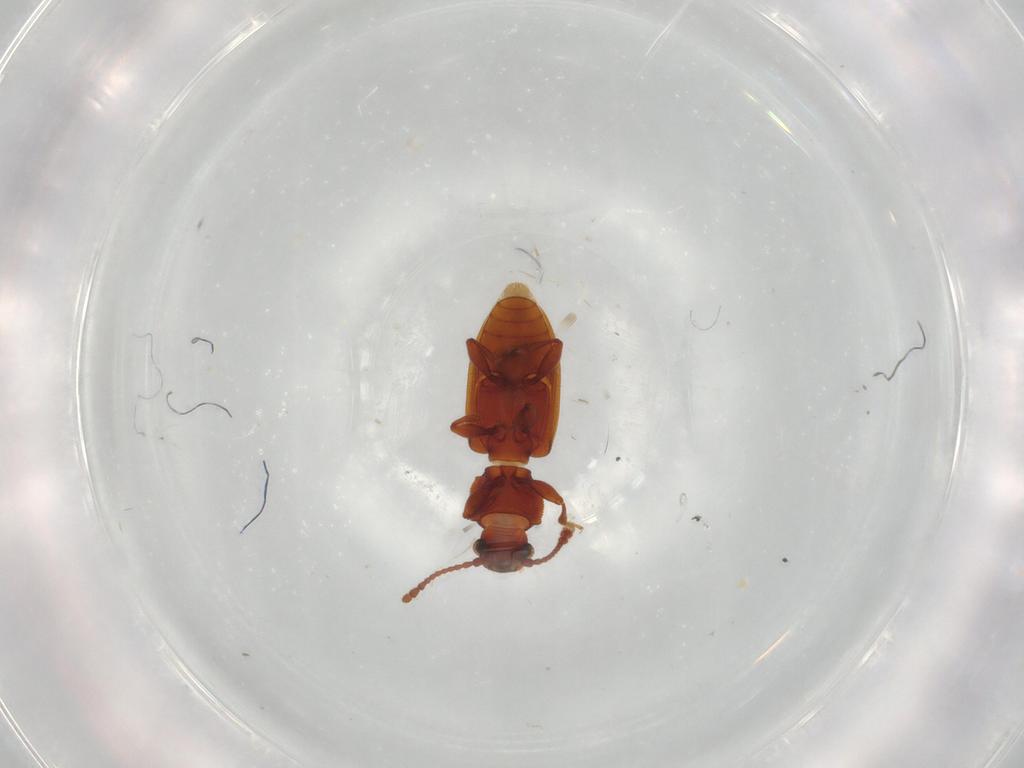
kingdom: Animalia
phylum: Arthropoda
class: Insecta
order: Coleoptera
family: Silvanidae
